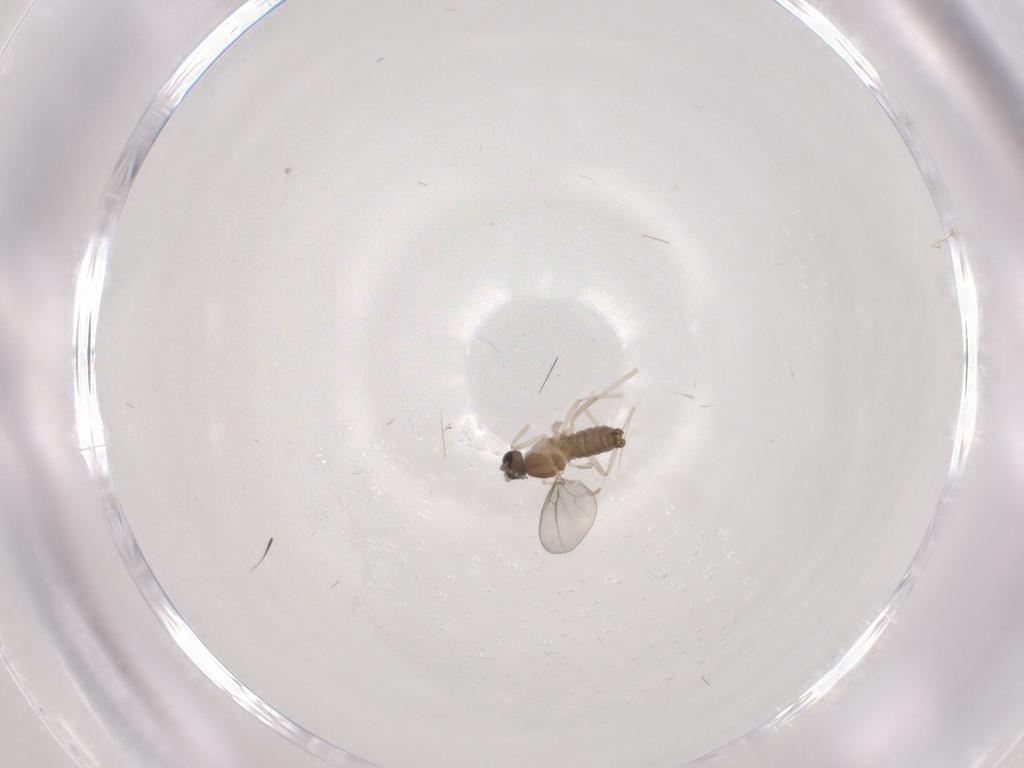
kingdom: Animalia
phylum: Arthropoda
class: Insecta
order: Diptera
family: Cecidomyiidae
